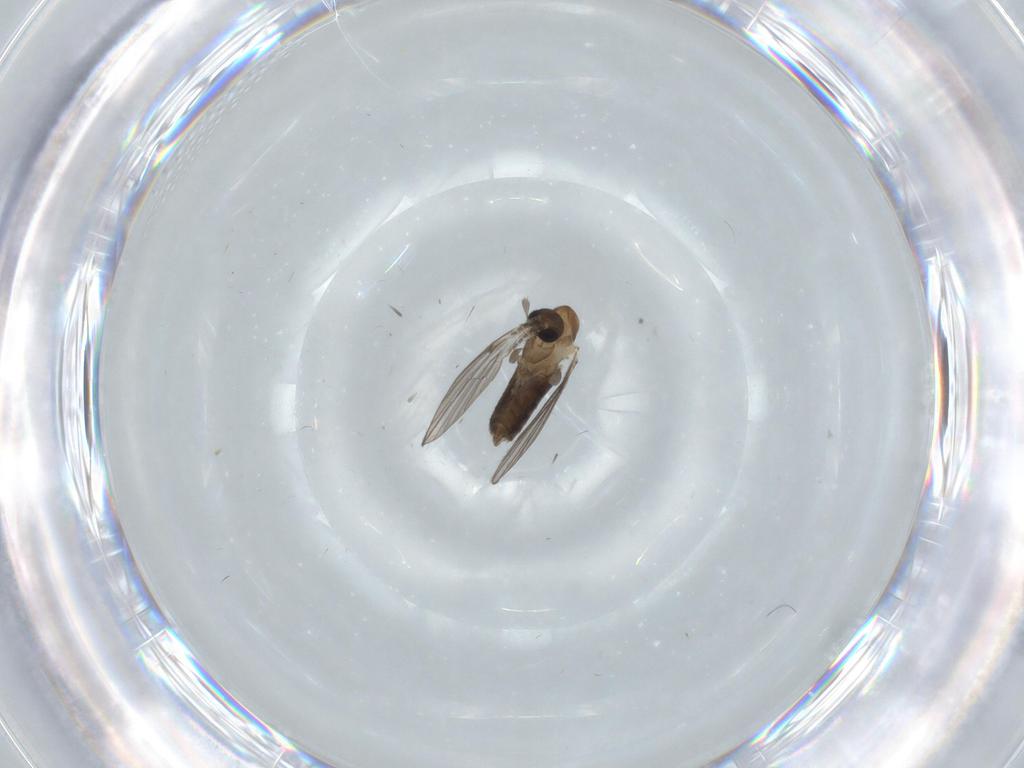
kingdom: Animalia
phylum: Arthropoda
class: Insecta
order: Diptera
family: Psychodidae
